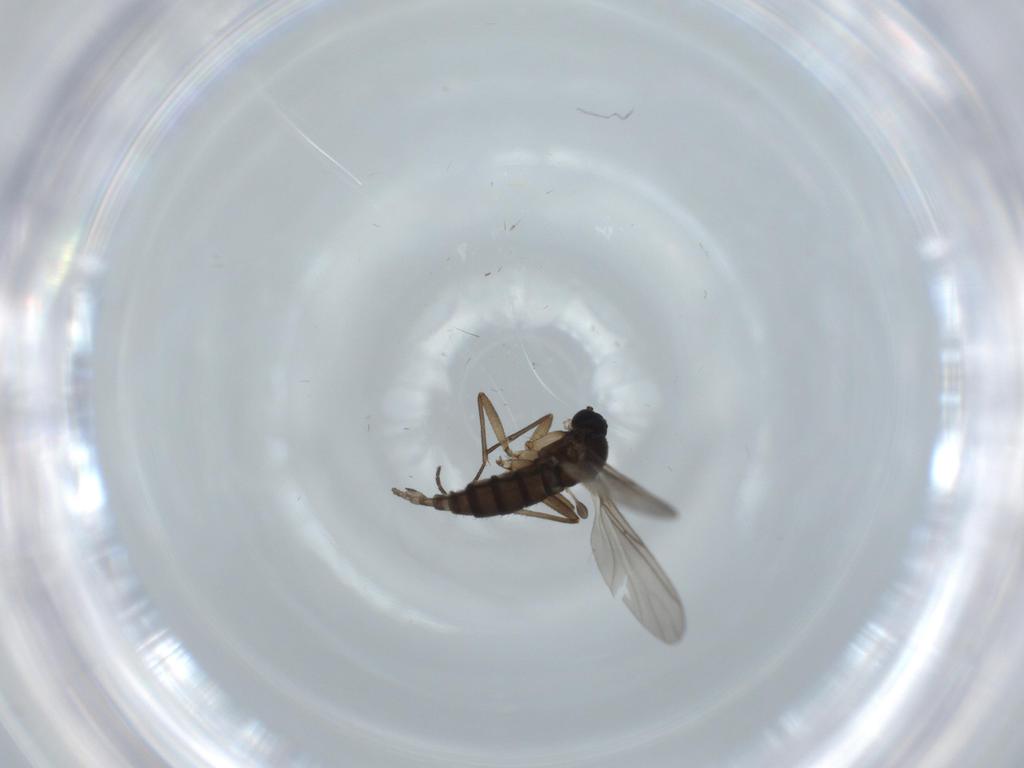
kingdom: Animalia
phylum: Arthropoda
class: Insecta
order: Diptera
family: Sciaridae
